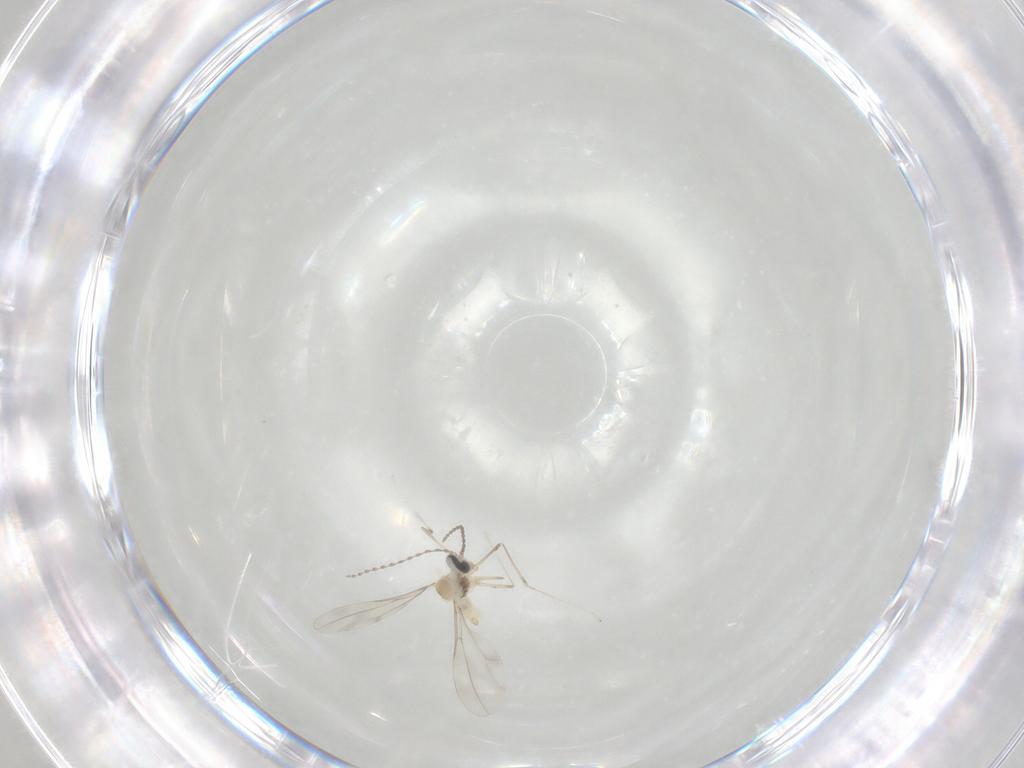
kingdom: Animalia
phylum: Arthropoda
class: Insecta
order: Diptera
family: Cecidomyiidae
